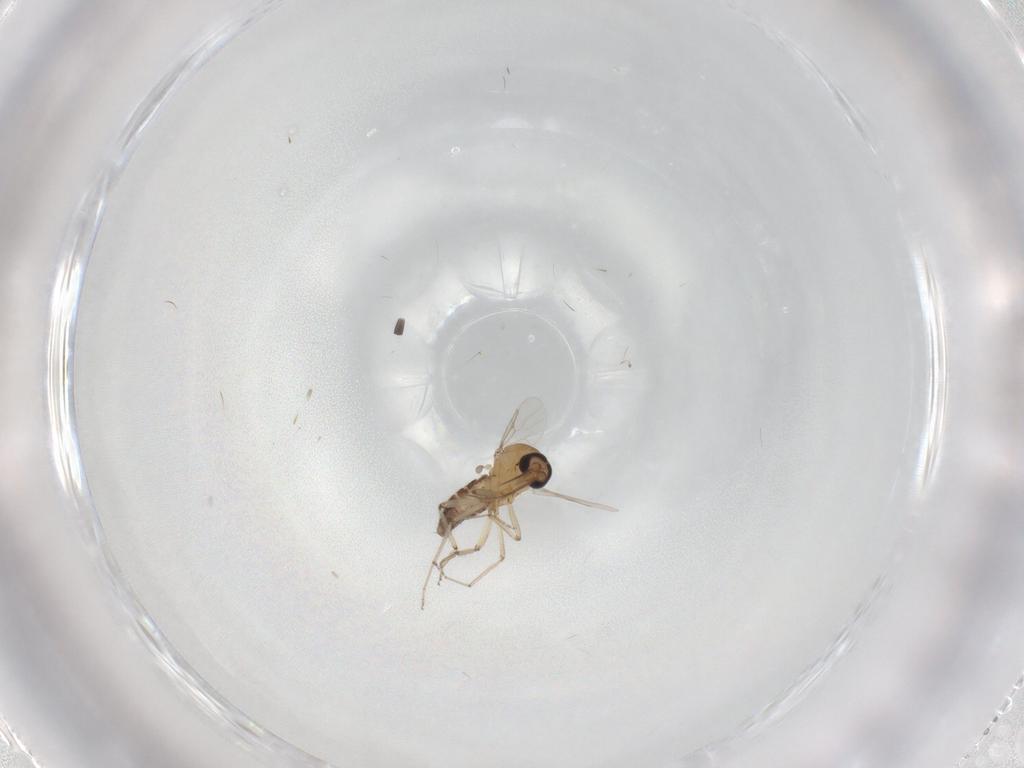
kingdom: Animalia
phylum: Arthropoda
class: Insecta
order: Diptera
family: Ceratopogonidae
